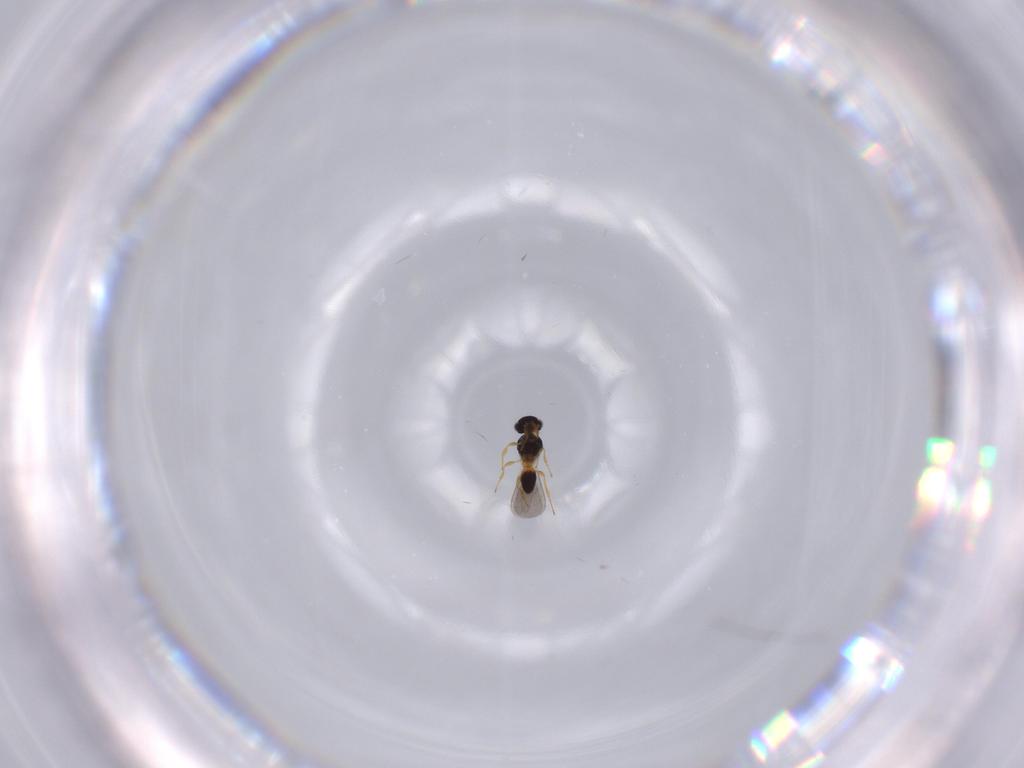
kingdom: Animalia
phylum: Arthropoda
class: Insecta
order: Hymenoptera
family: Platygastridae
